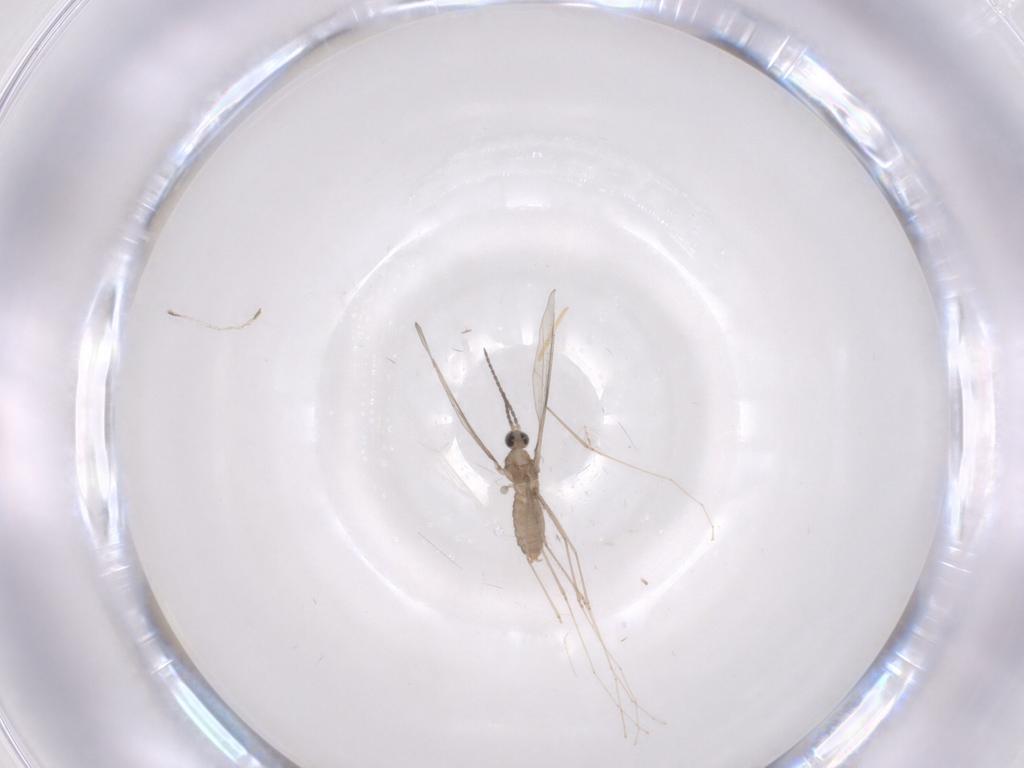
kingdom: Animalia
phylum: Arthropoda
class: Insecta
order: Diptera
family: Cecidomyiidae
